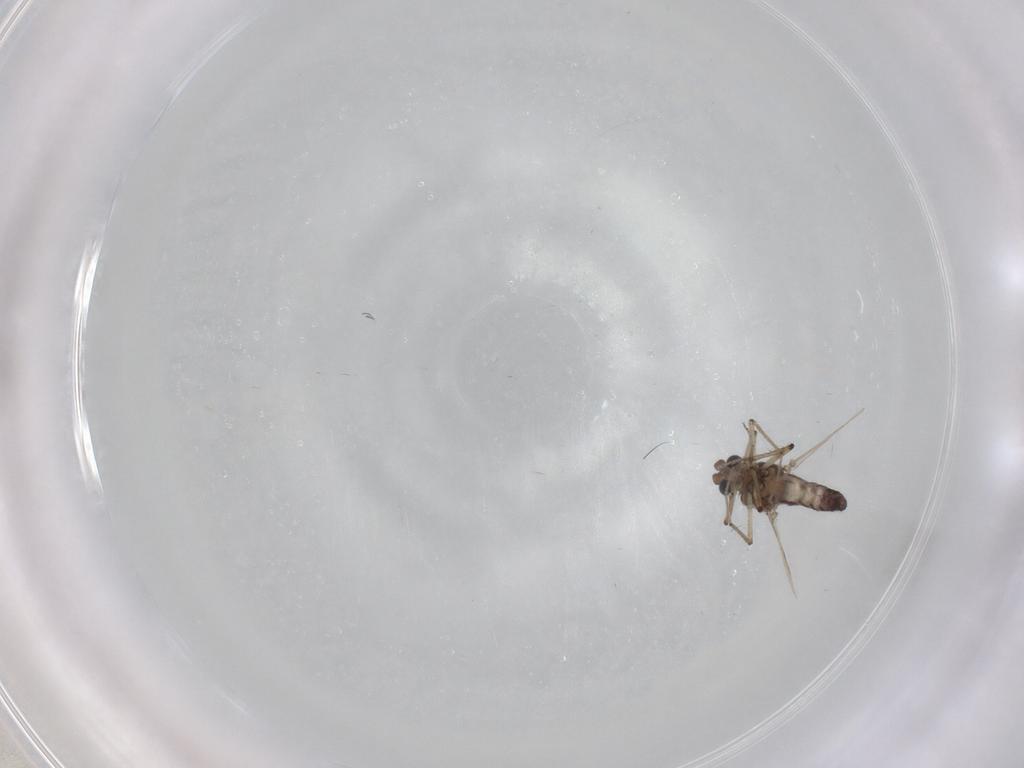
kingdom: Animalia
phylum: Arthropoda
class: Insecta
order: Diptera
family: Ceratopogonidae
